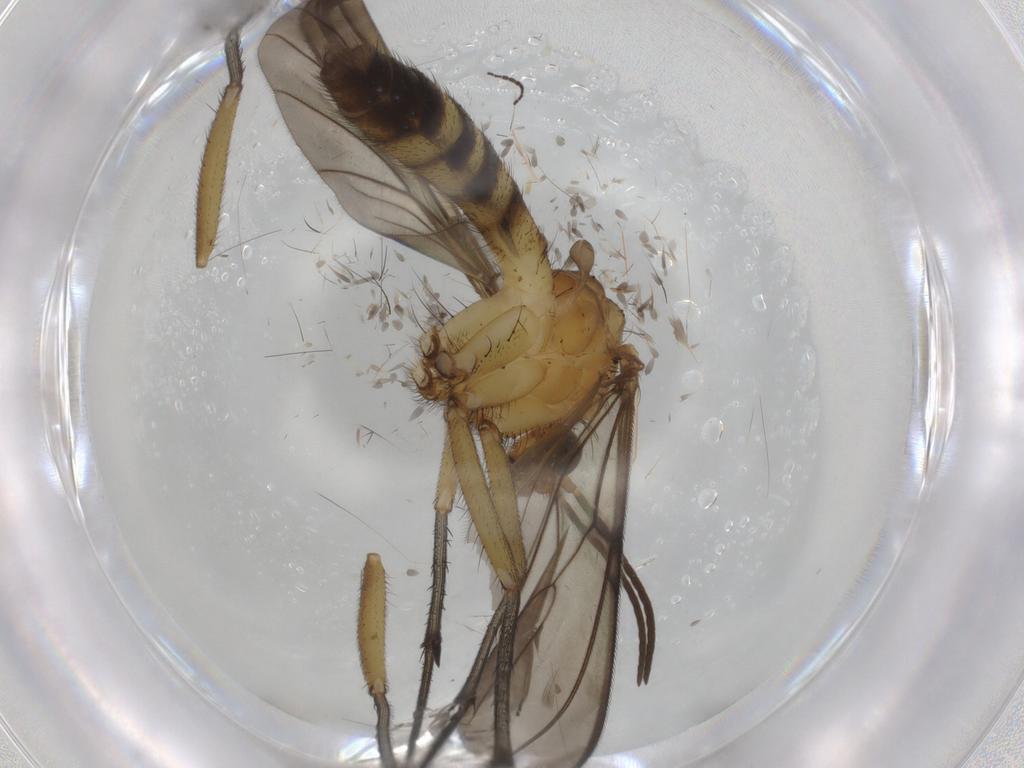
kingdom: Animalia
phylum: Arthropoda
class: Insecta
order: Diptera
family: Mycetophilidae
